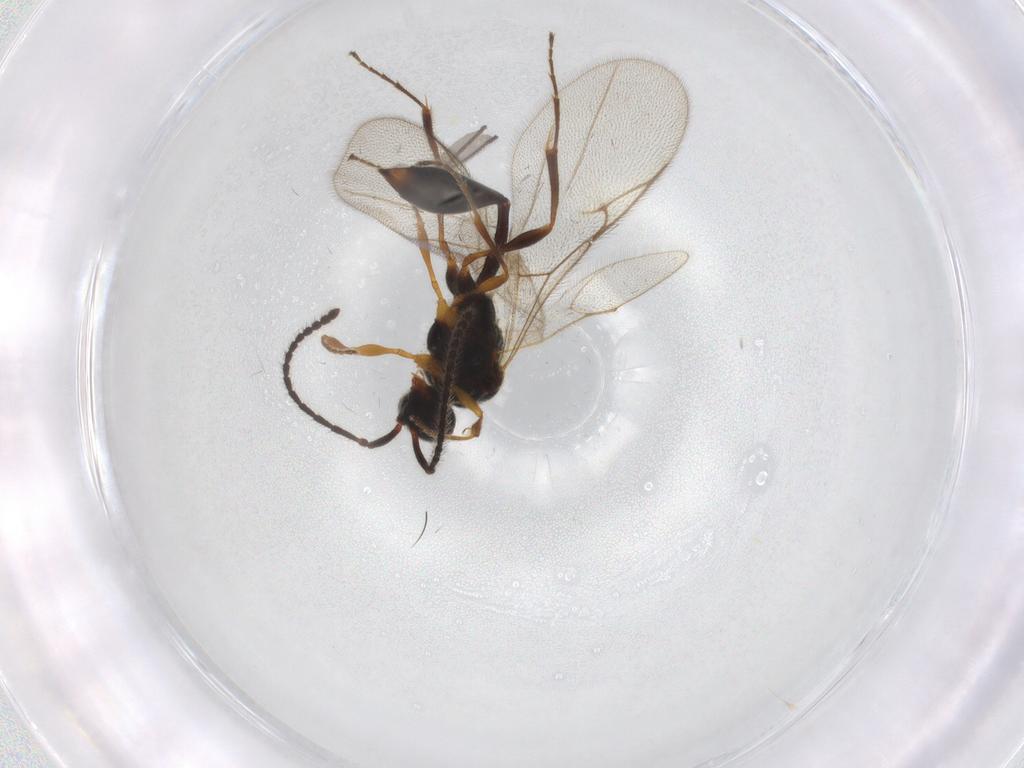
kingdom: Animalia
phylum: Arthropoda
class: Insecta
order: Hymenoptera
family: Diapriidae
